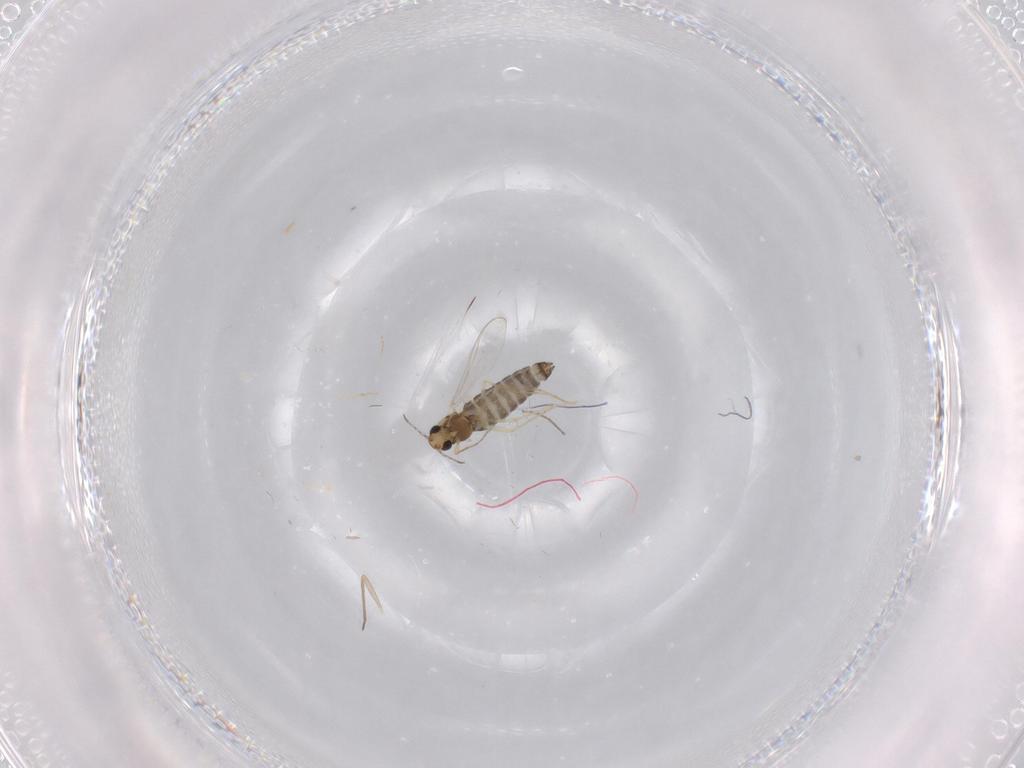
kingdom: Animalia
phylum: Arthropoda
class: Insecta
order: Diptera
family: Chironomidae
